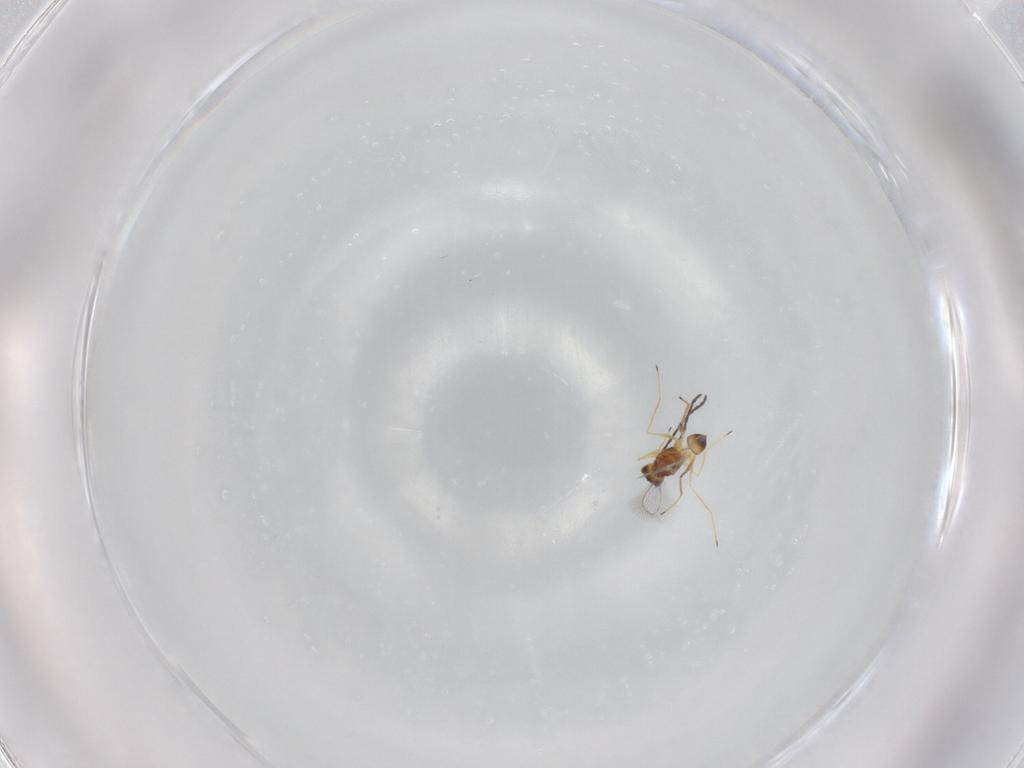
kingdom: Animalia
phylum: Arthropoda
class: Insecta
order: Hymenoptera
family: Mymaridae
